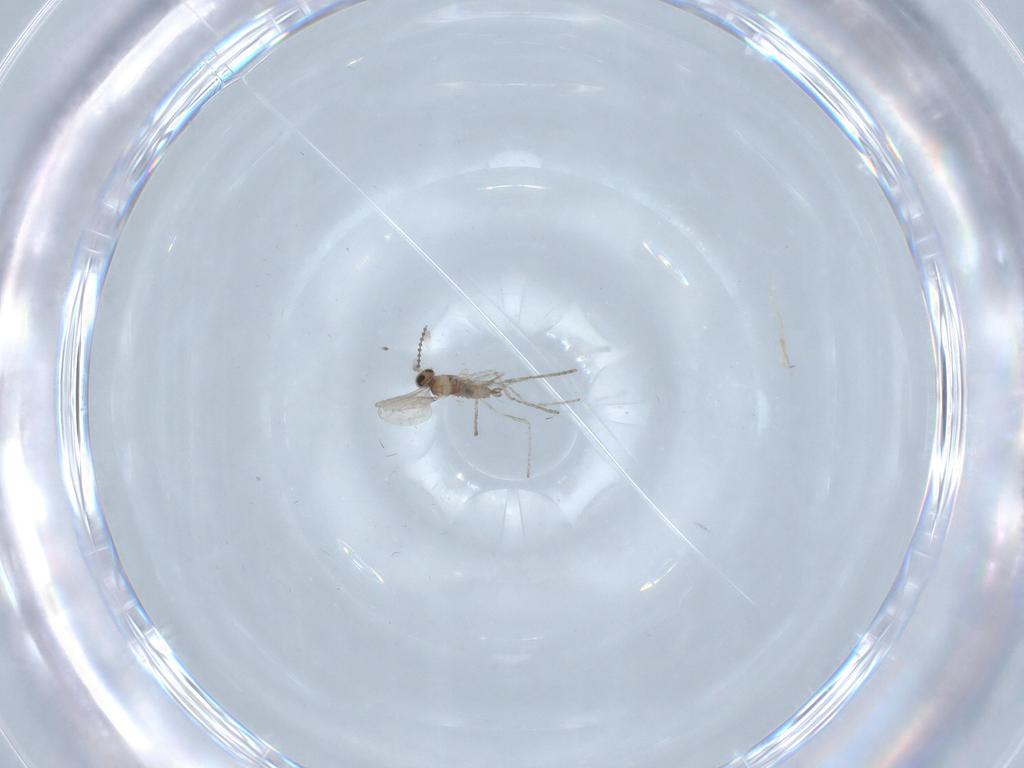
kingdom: Animalia
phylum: Arthropoda
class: Insecta
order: Diptera
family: Cecidomyiidae
